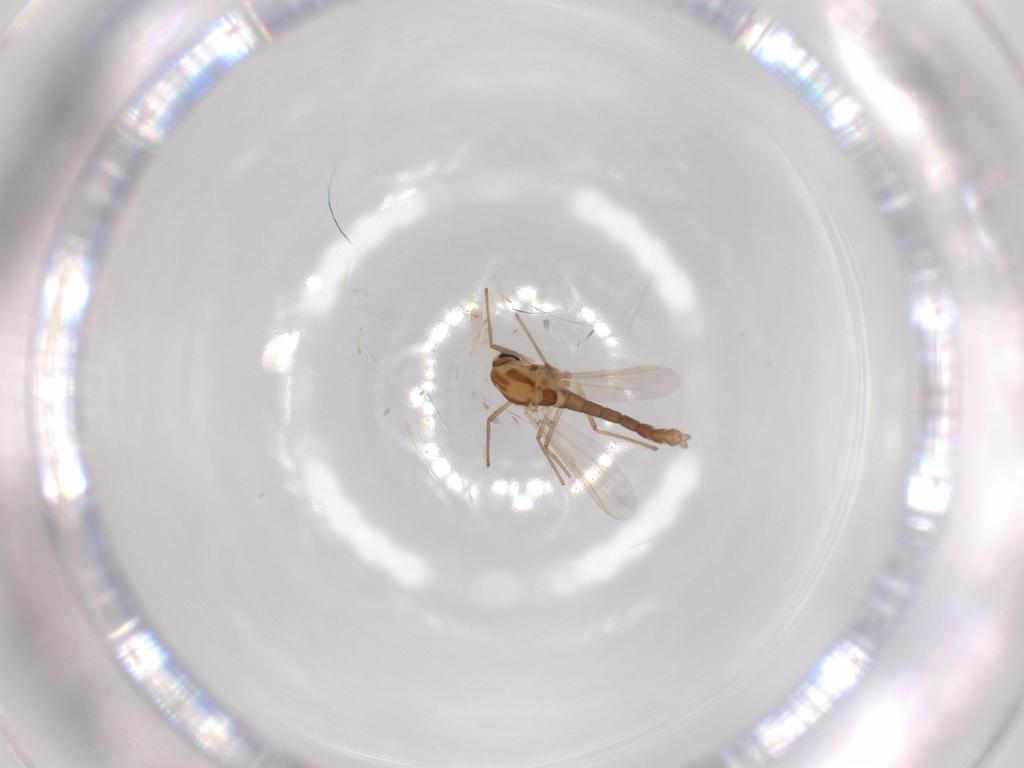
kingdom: Animalia
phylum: Arthropoda
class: Insecta
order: Diptera
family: Chironomidae
